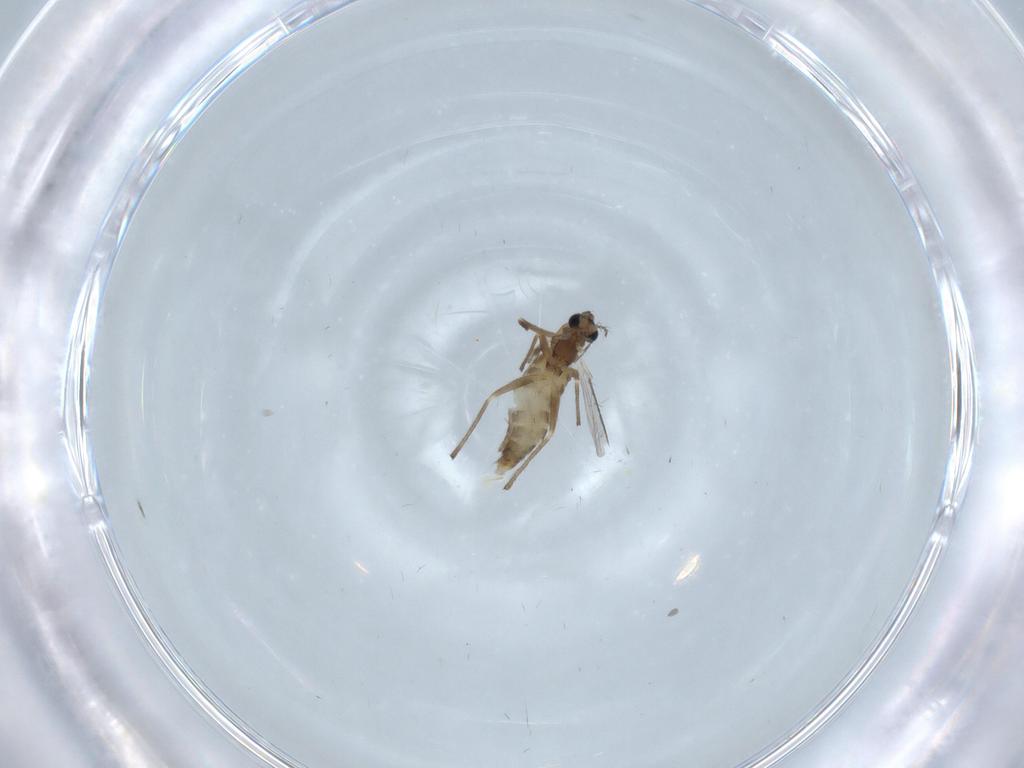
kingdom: Animalia
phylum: Arthropoda
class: Insecta
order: Diptera
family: Chironomidae
